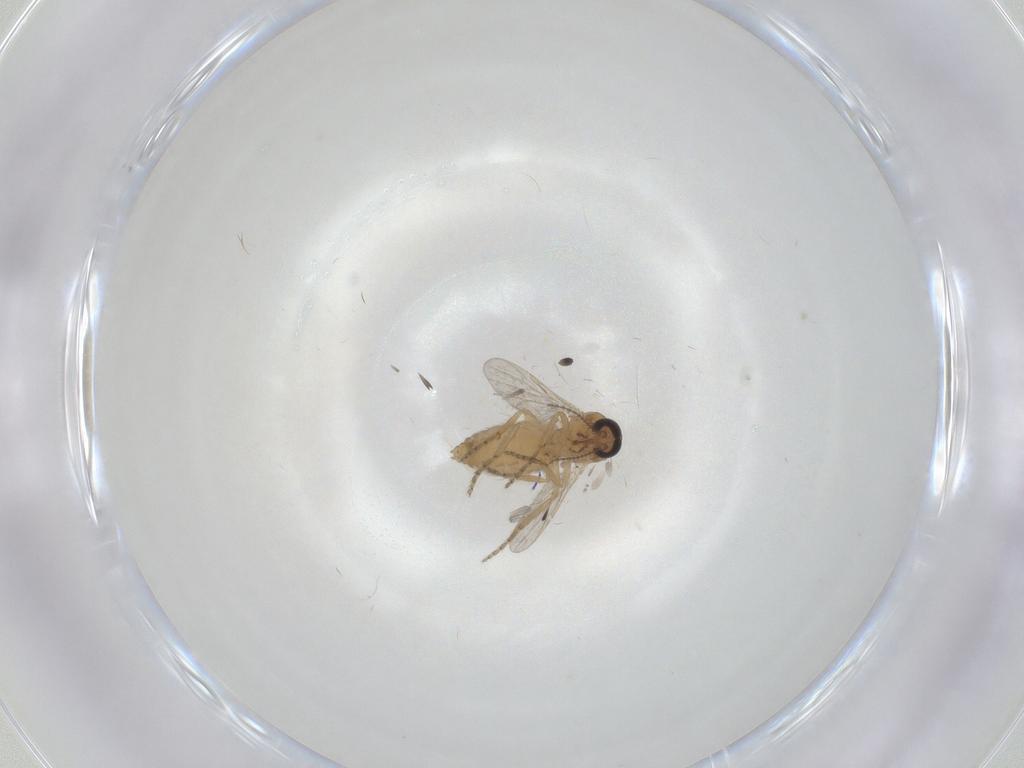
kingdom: Animalia
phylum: Arthropoda
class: Insecta
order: Diptera
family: Cecidomyiidae
